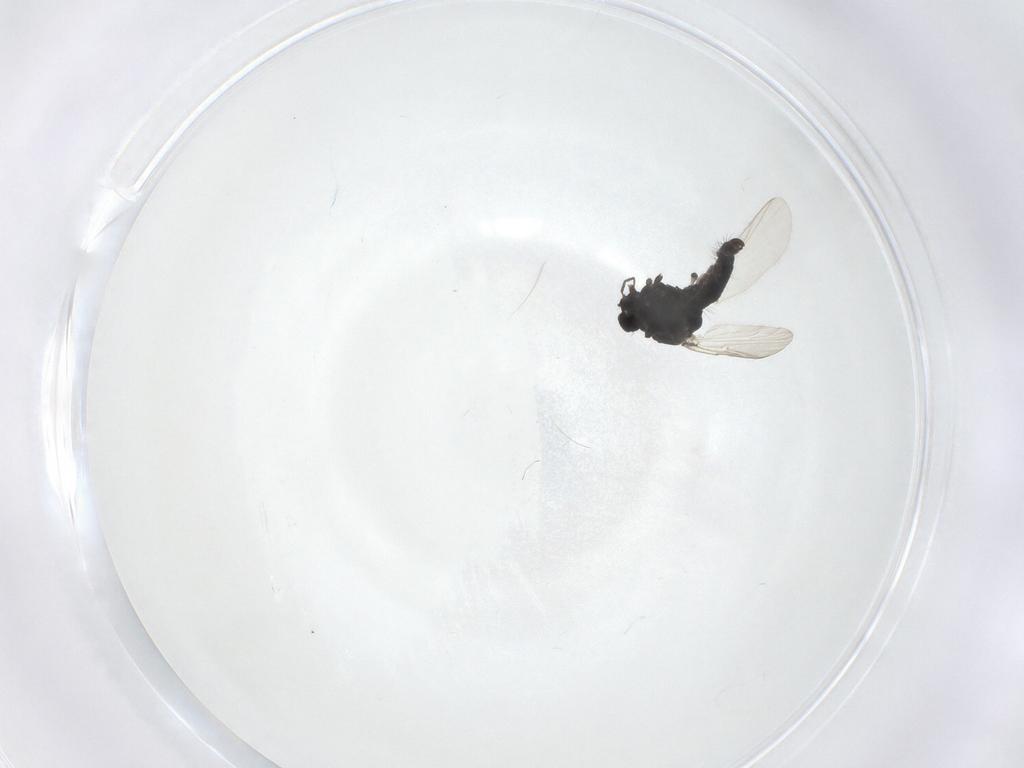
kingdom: Animalia
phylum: Arthropoda
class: Insecta
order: Diptera
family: Chironomidae
